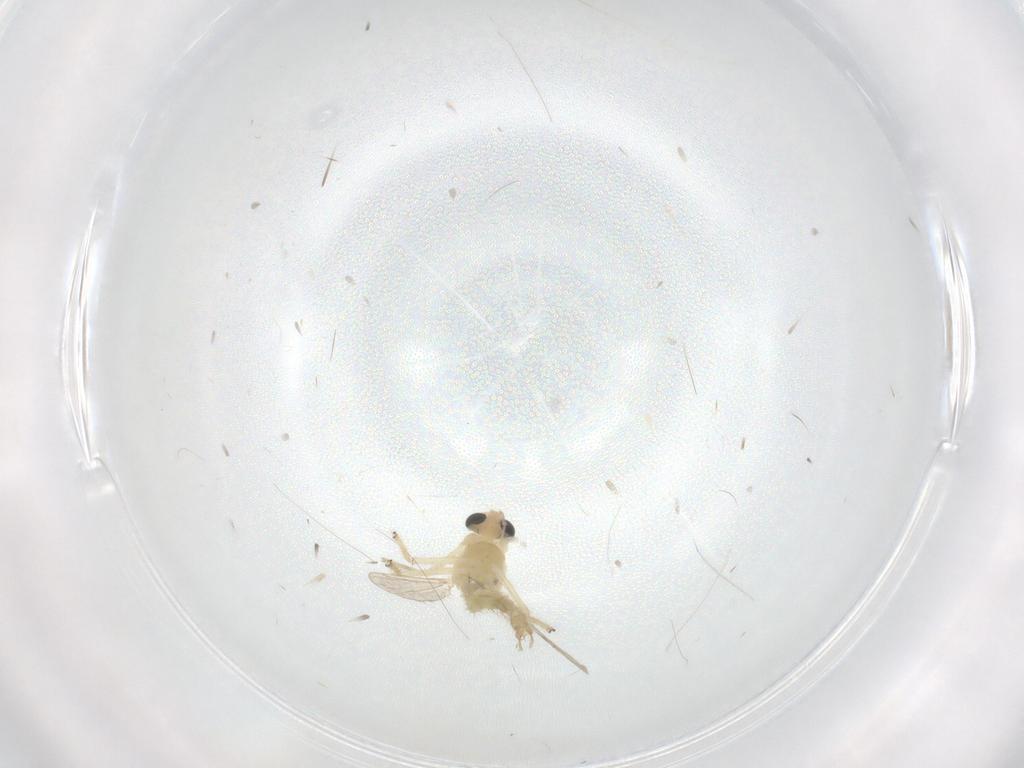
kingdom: Animalia
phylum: Arthropoda
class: Insecta
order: Diptera
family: Chironomidae
